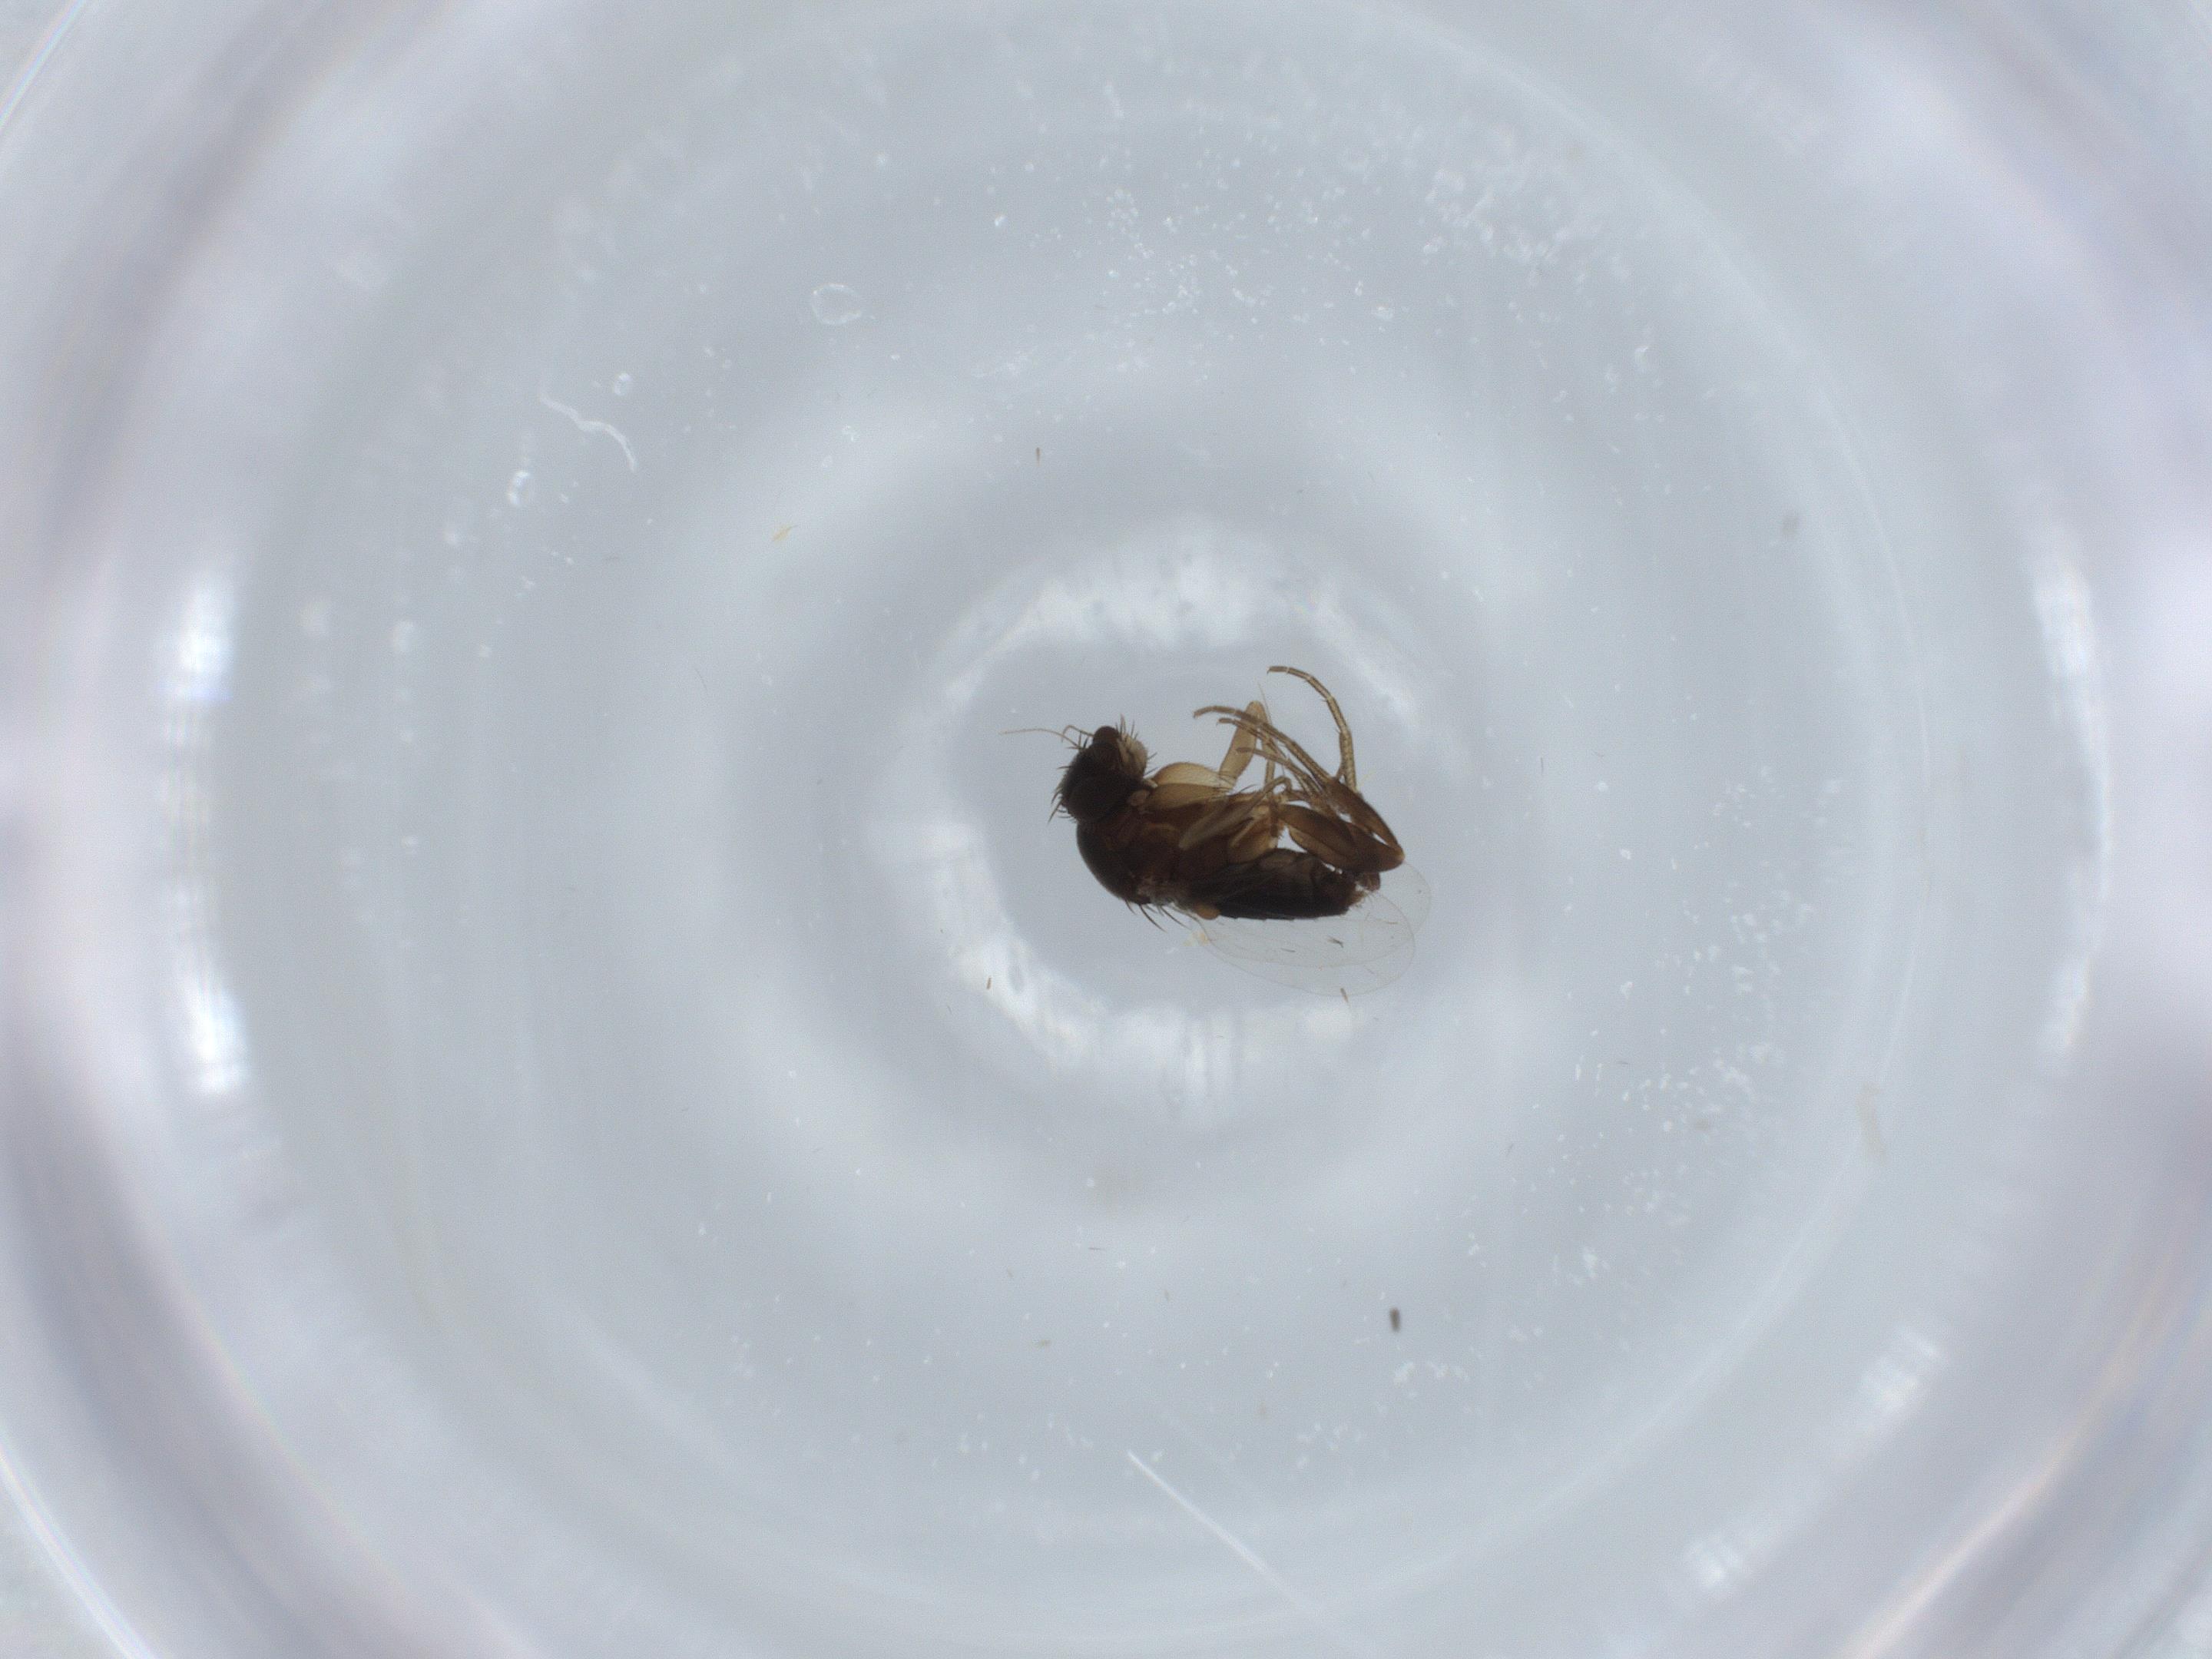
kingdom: Animalia
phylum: Arthropoda
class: Insecta
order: Diptera
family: Phoridae
